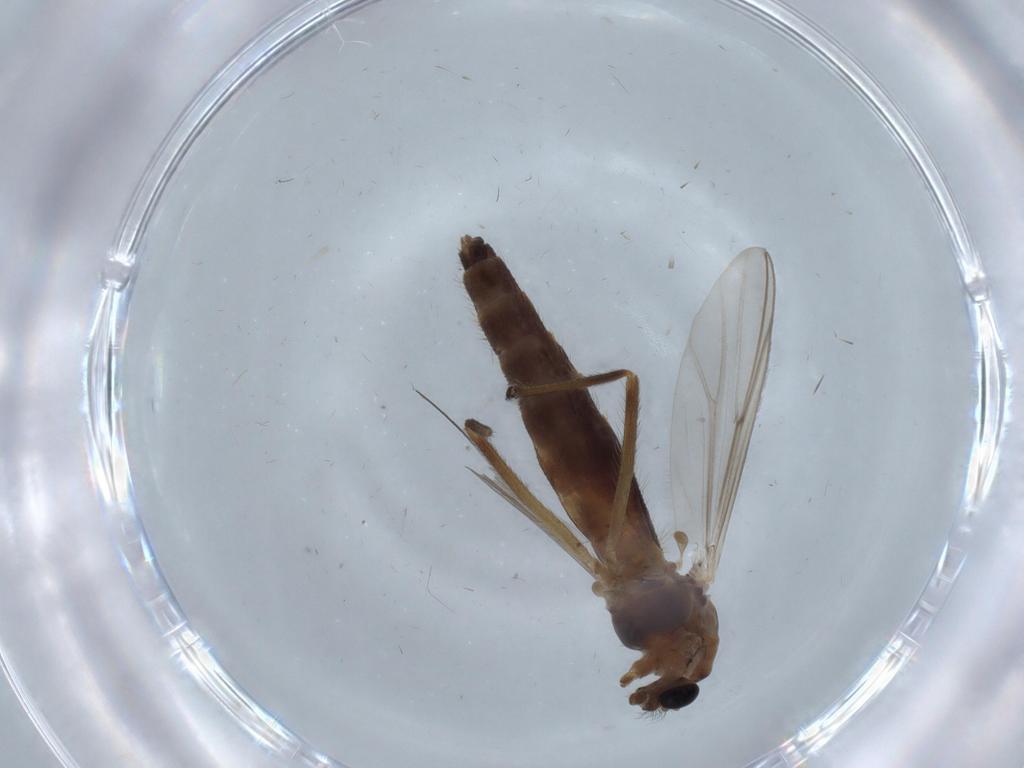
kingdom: Animalia
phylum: Arthropoda
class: Insecta
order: Diptera
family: Chironomidae
